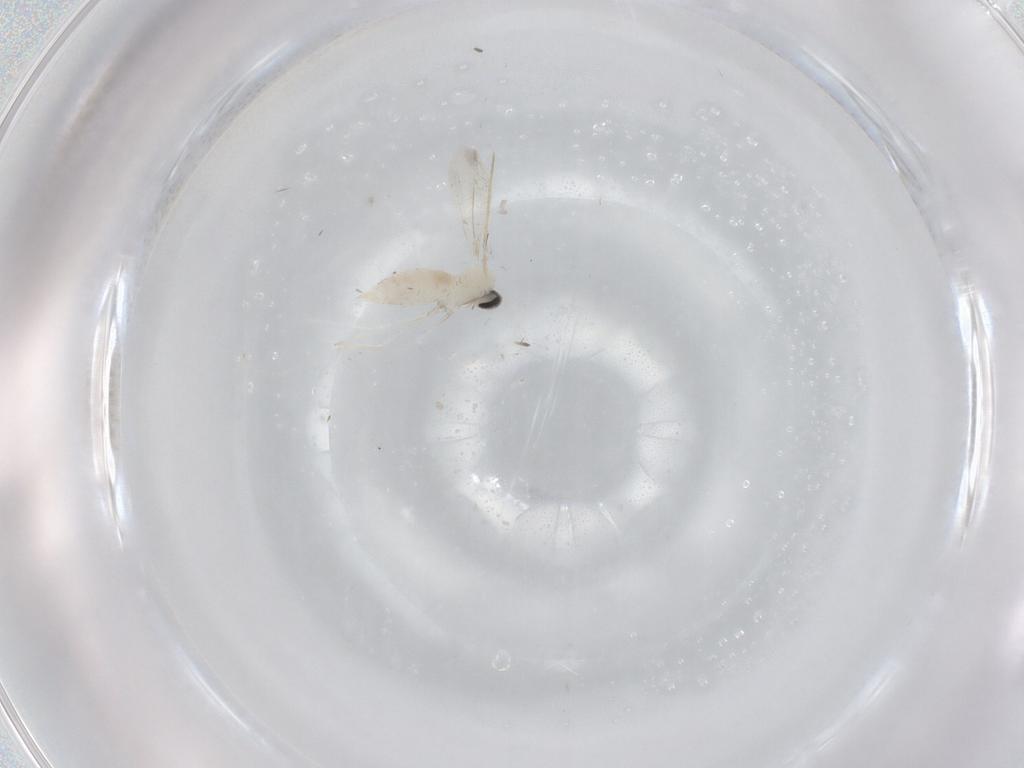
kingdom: Animalia
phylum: Arthropoda
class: Insecta
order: Diptera
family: Cecidomyiidae
